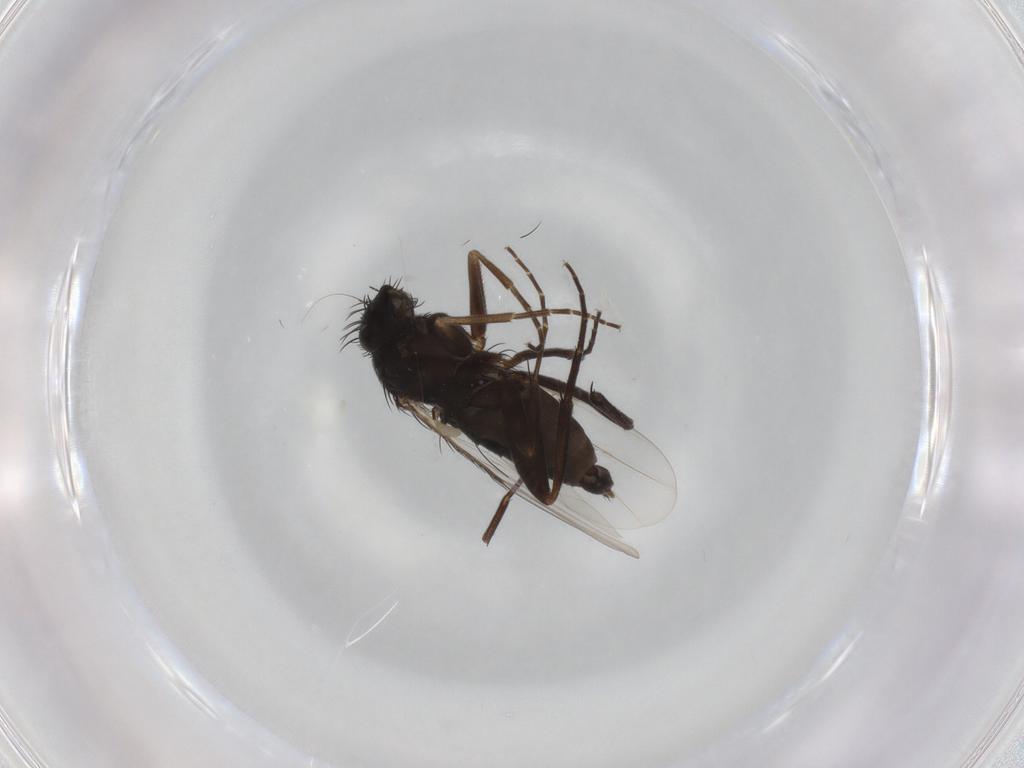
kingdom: Animalia
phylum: Arthropoda
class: Insecta
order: Diptera
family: Phoridae
